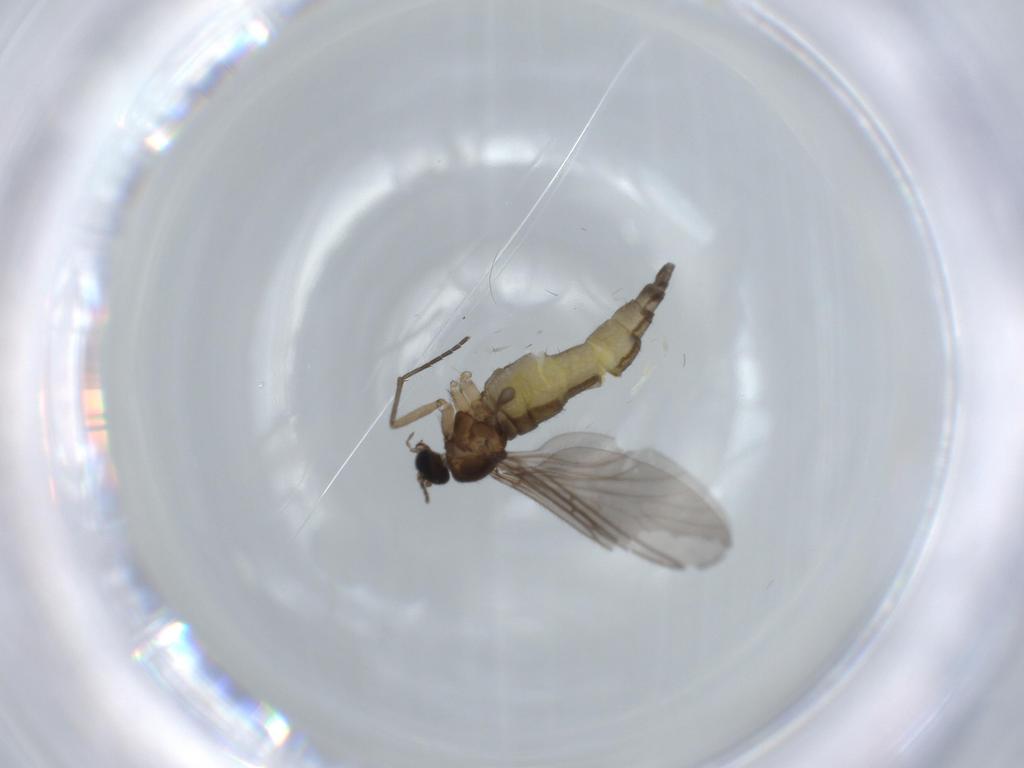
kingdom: Animalia
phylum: Arthropoda
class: Insecta
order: Diptera
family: Sciaridae
